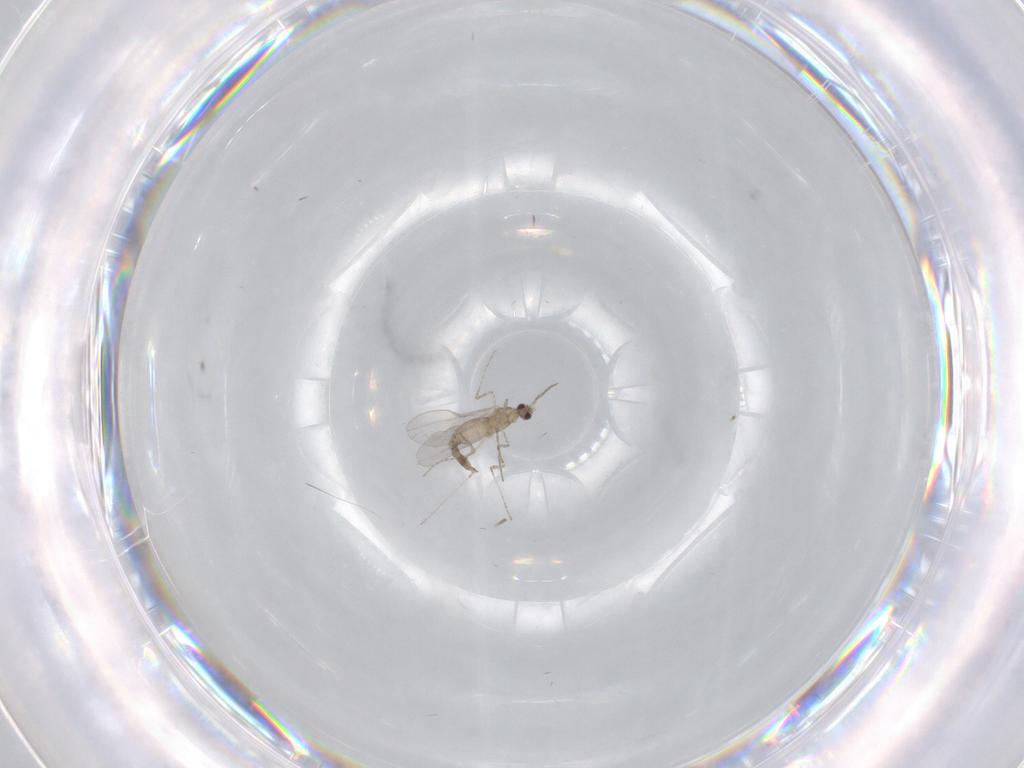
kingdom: Animalia
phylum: Arthropoda
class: Insecta
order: Diptera
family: Cecidomyiidae
